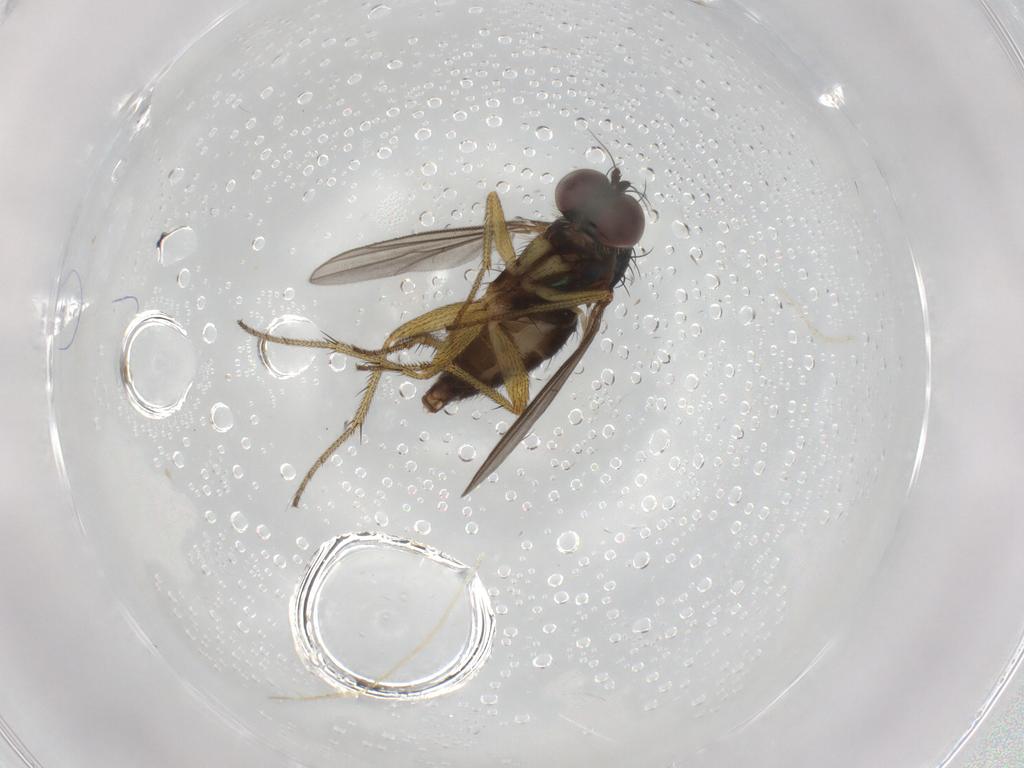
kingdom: Animalia
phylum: Arthropoda
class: Insecta
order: Diptera
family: Chironomidae
